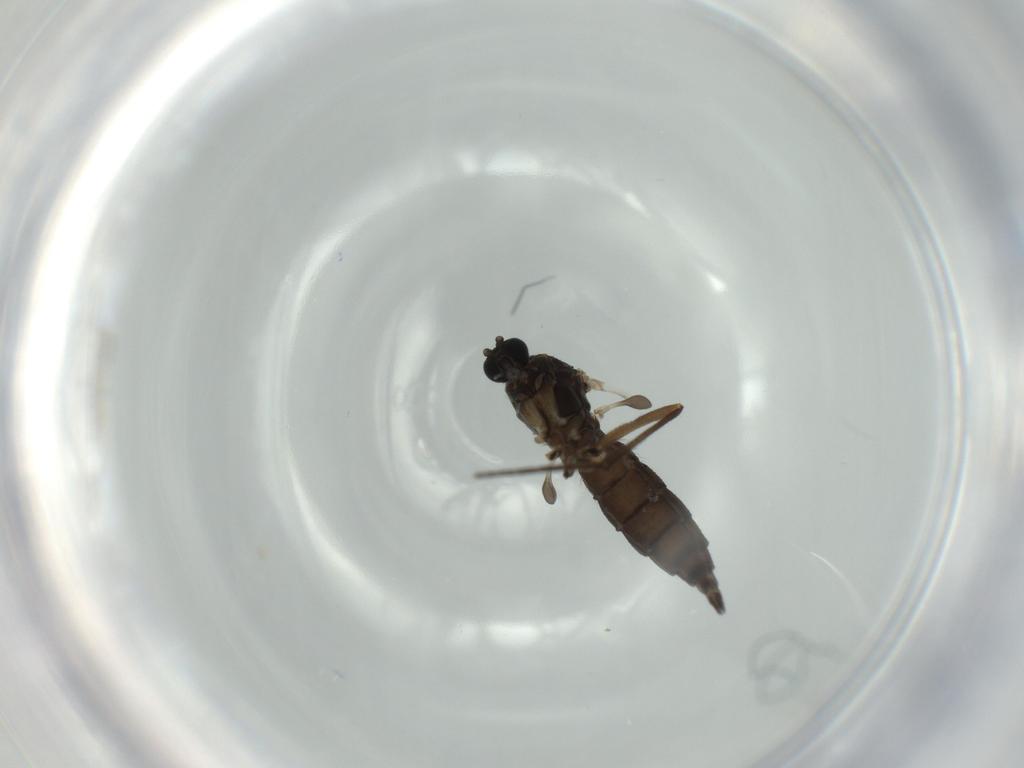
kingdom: Animalia
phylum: Arthropoda
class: Insecta
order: Diptera
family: Sciaridae
